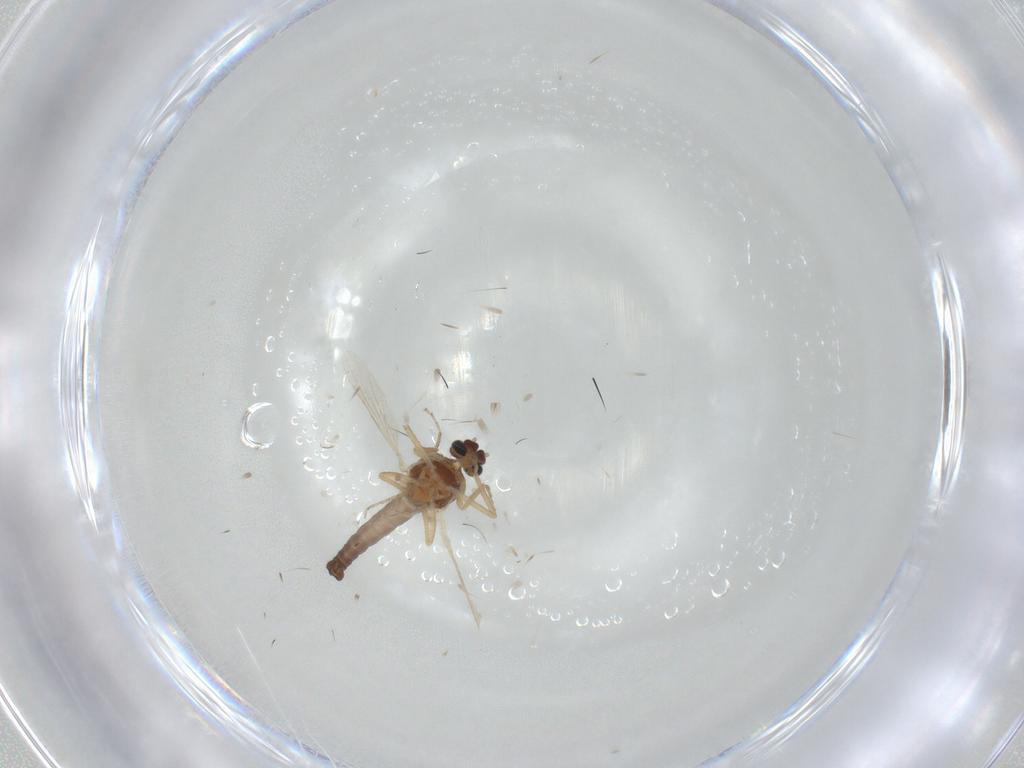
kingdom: Animalia
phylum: Arthropoda
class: Insecta
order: Diptera
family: Ceratopogonidae
